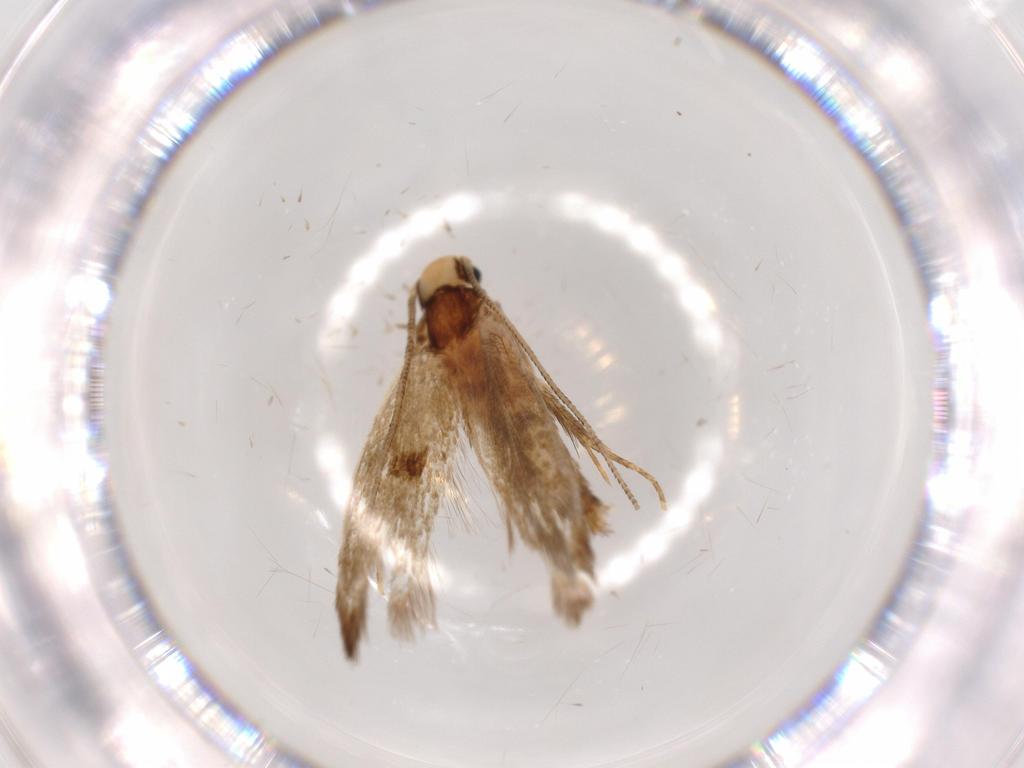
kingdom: Animalia
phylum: Arthropoda
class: Insecta
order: Lepidoptera
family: Tineidae
